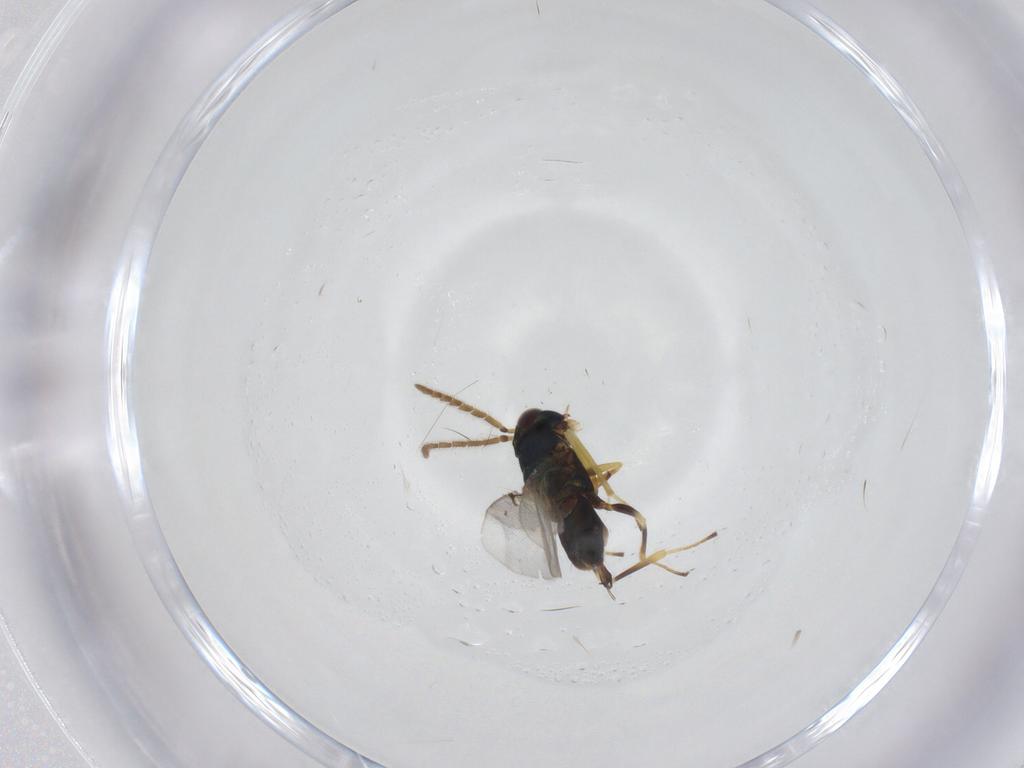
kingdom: Animalia
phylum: Arthropoda
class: Insecta
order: Hymenoptera
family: Encyrtidae
